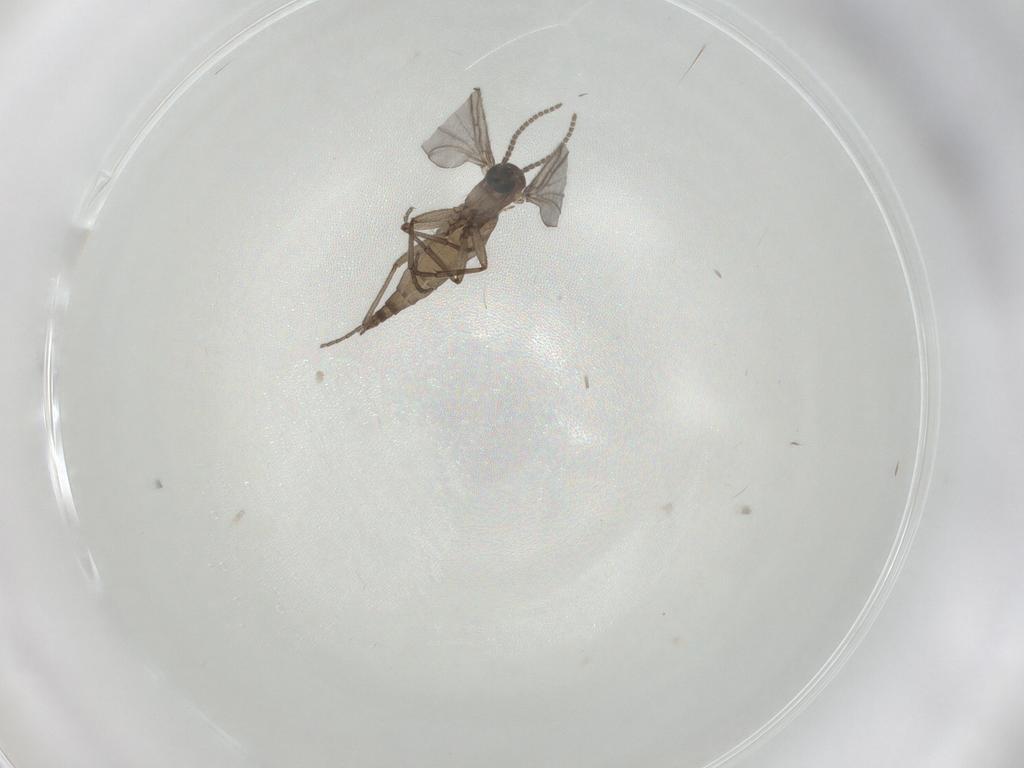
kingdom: Animalia
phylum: Arthropoda
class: Insecta
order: Diptera
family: Sciaridae
